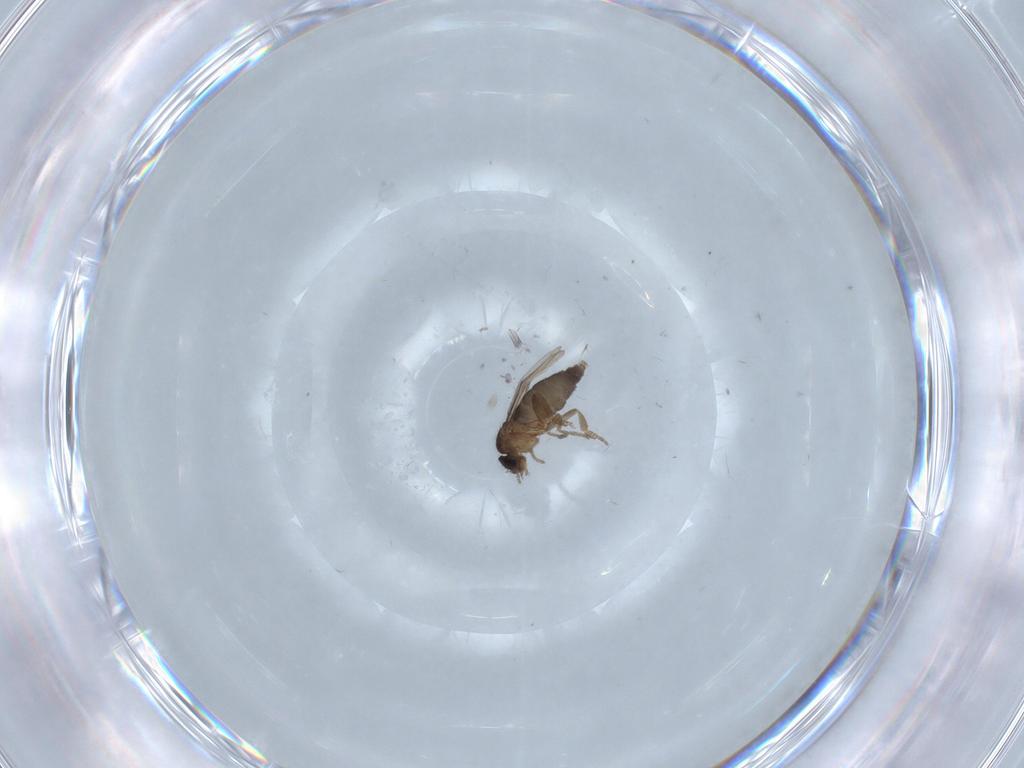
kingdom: Animalia
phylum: Arthropoda
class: Insecta
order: Diptera
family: Phoridae
